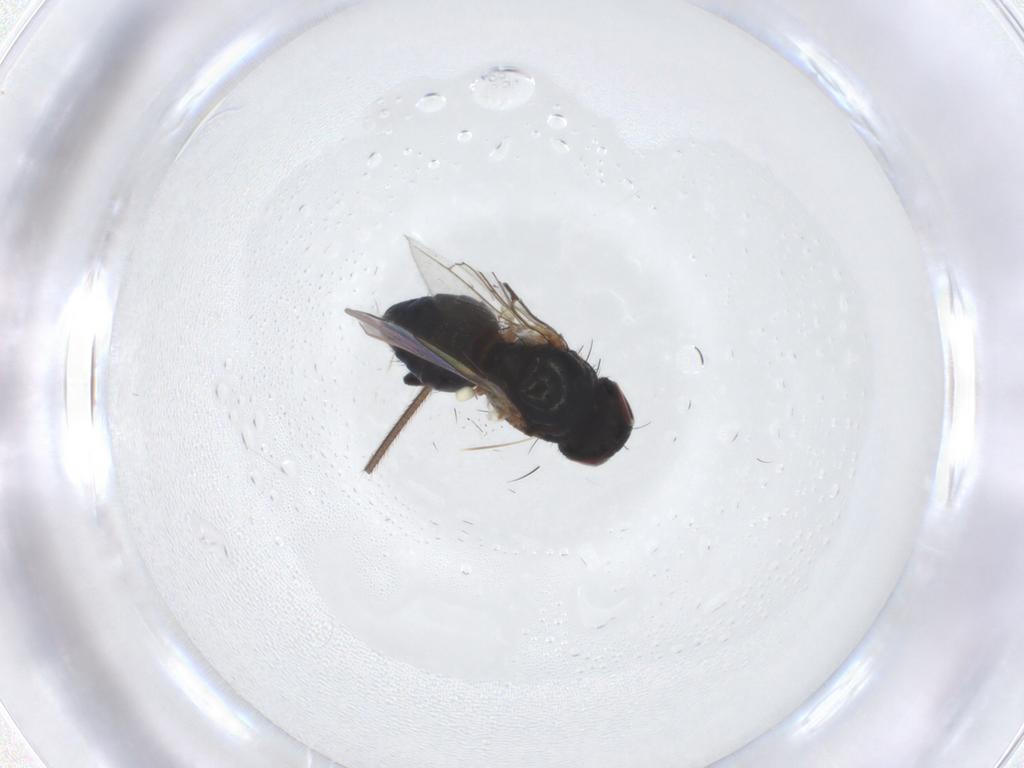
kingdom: Animalia
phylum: Arthropoda
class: Insecta
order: Diptera
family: Agromyzidae
